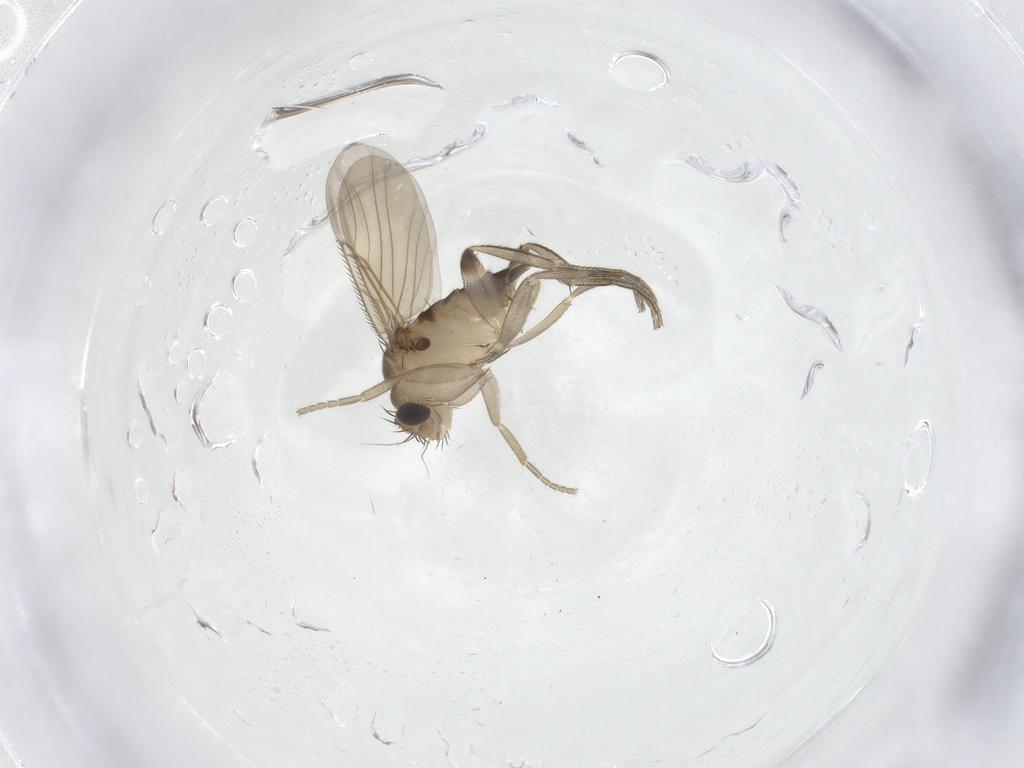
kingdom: Animalia
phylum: Arthropoda
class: Insecta
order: Diptera
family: Phoridae
